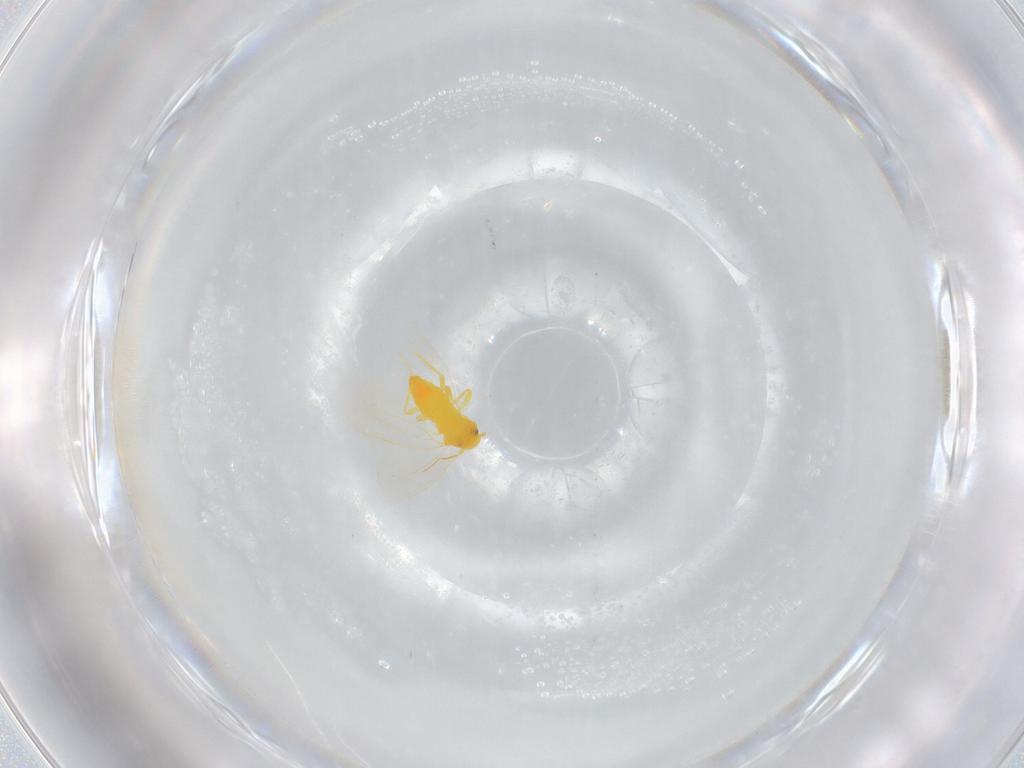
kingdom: Animalia
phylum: Arthropoda
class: Insecta
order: Hemiptera
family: Aleyrodidae
